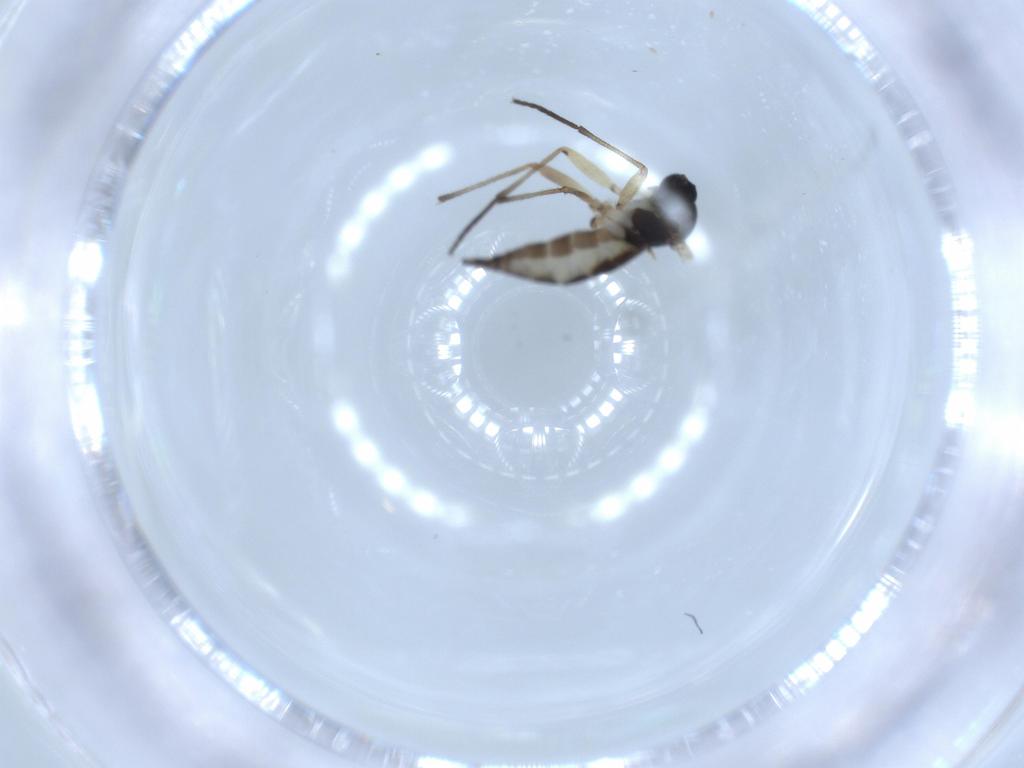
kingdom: Animalia
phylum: Arthropoda
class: Insecta
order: Diptera
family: Sciaridae
